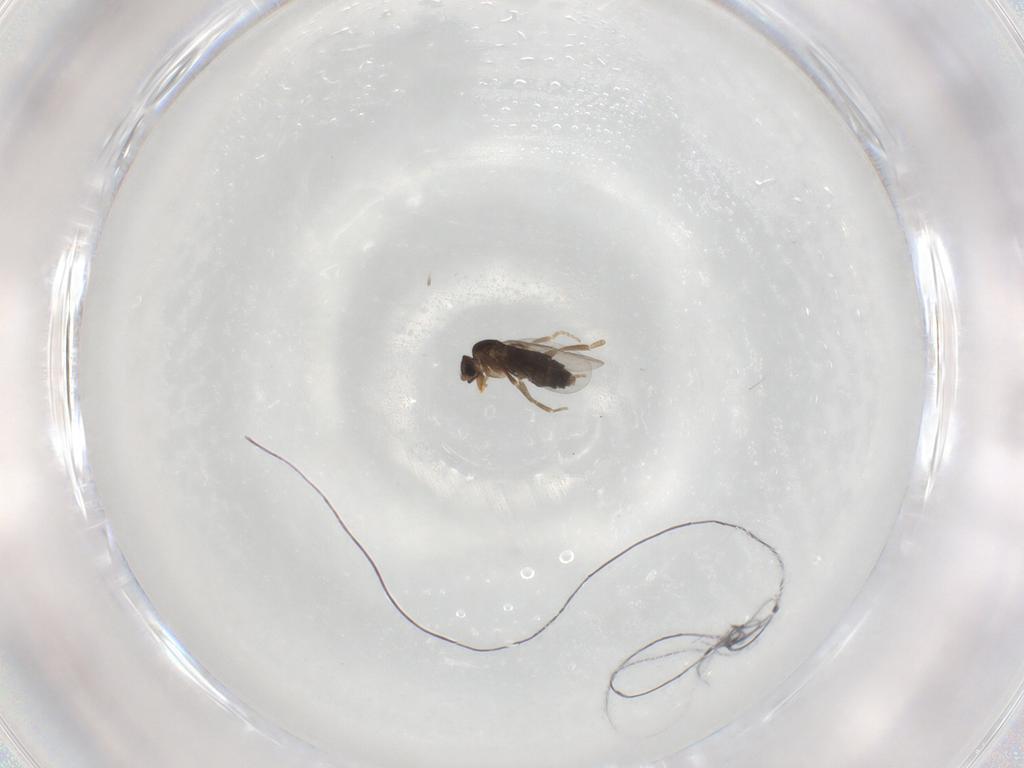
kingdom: Animalia
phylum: Arthropoda
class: Insecta
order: Diptera
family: Phoridae
